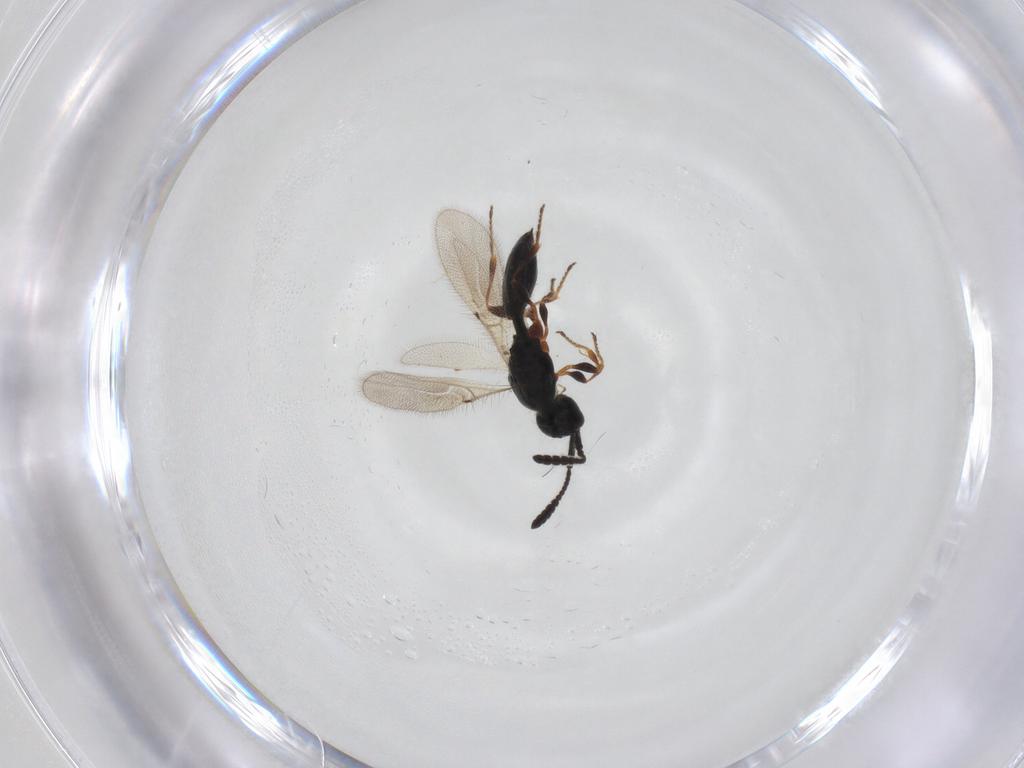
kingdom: Animalia
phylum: Arthropoda
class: Insecta
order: Hymenoptera
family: Diapriidae
